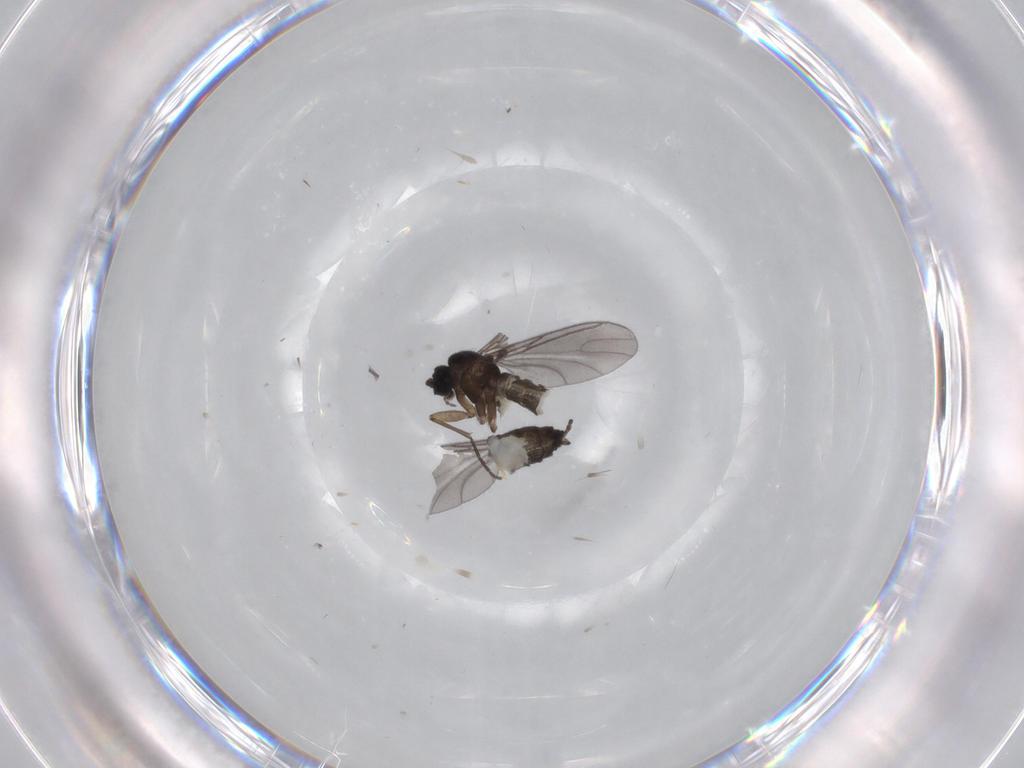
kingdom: Animalia
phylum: Arthropoda
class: Insecta
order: Diptera
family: Sciaridae
